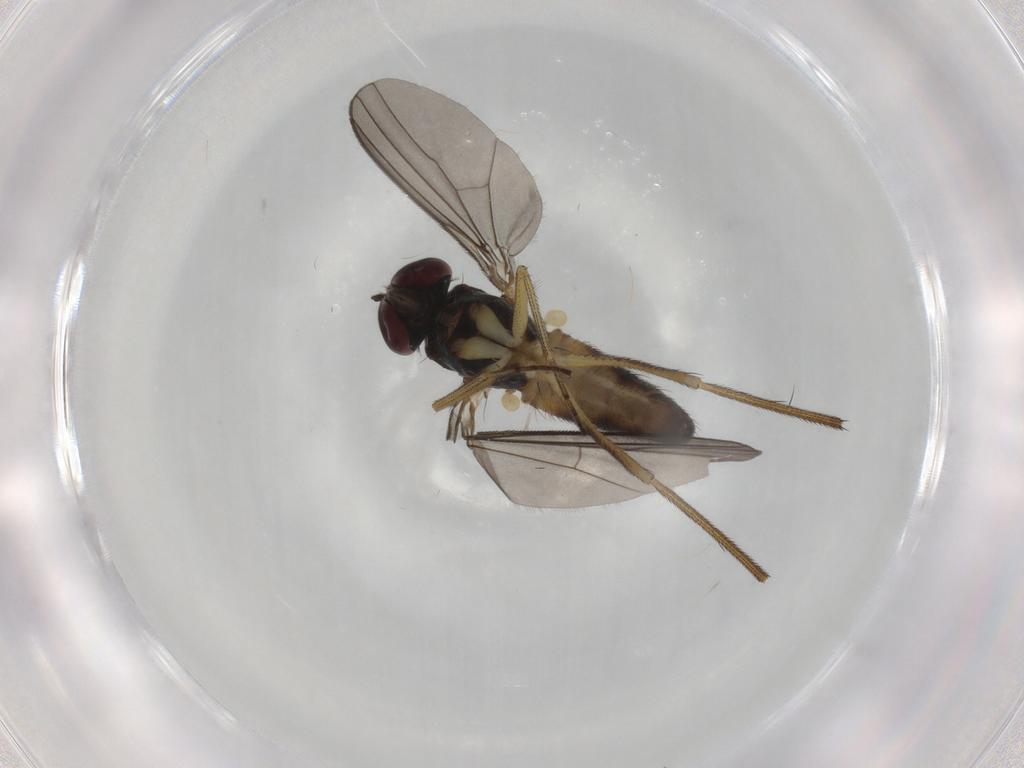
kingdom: Animalia
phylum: Arthropoda
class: Insecta
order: Diptera
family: Dolichopodidae
